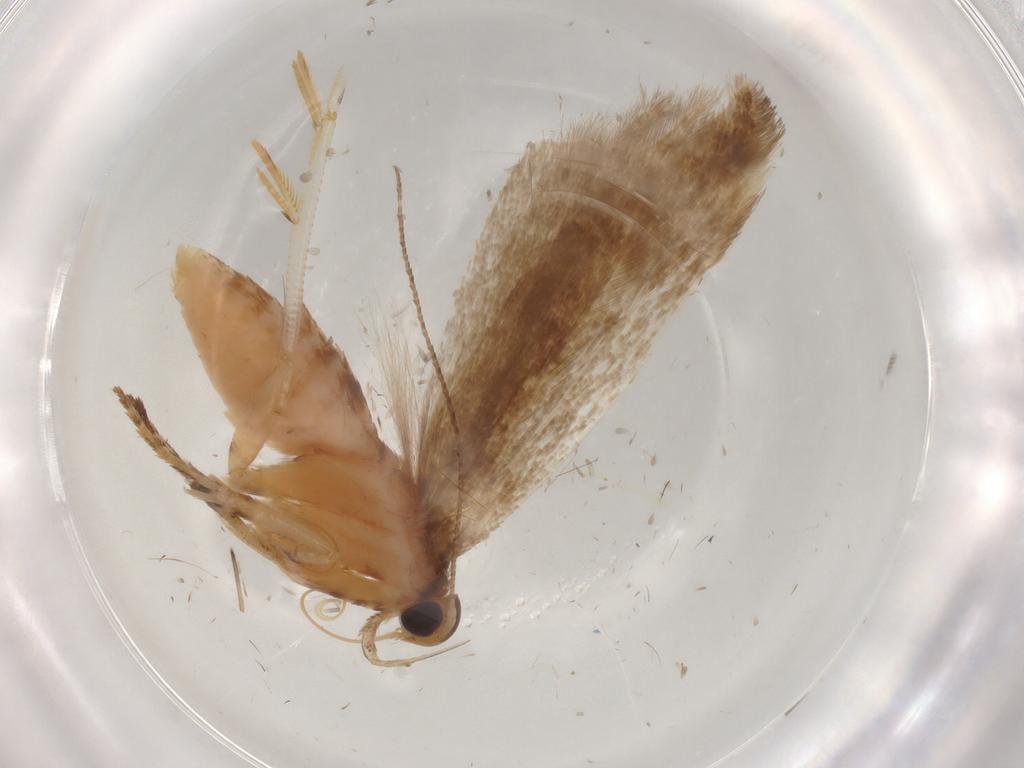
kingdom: Animalia
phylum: Arthropoda
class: Insecta
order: Lepidoptera
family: Gelechiidae
